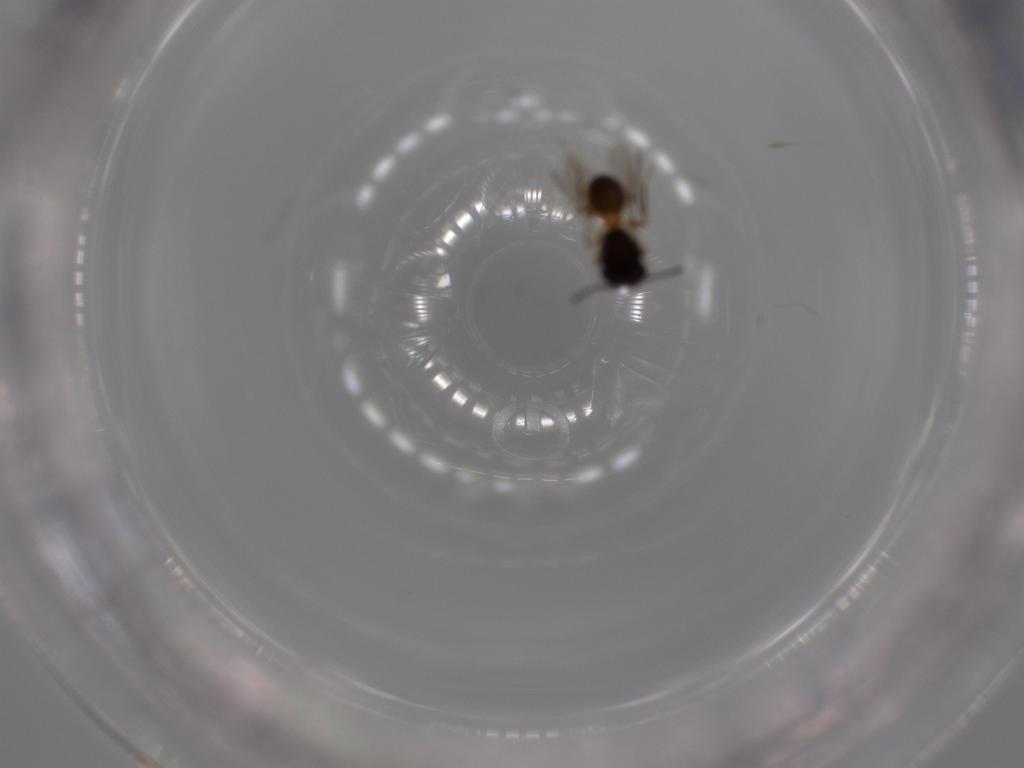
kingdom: Animalia
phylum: Arthropoda
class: Arachnida
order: Araneae
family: Pholcidae
